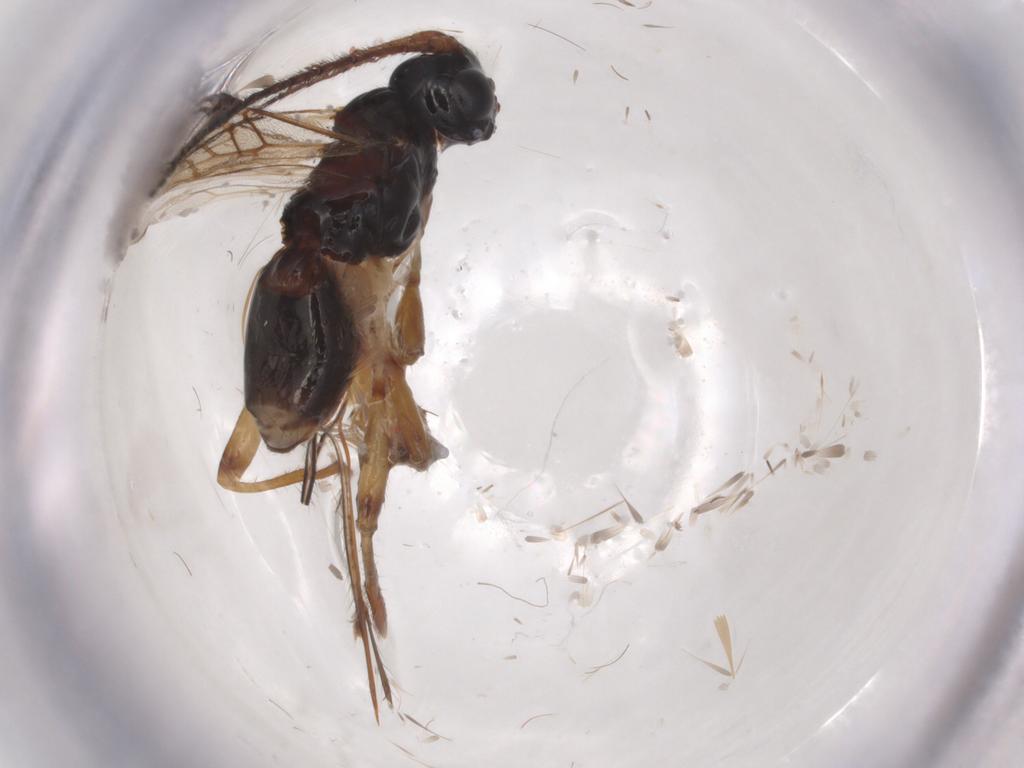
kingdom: Animalia
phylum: Arthropoda
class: Insecta
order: Hymenoptera
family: Braconidae
